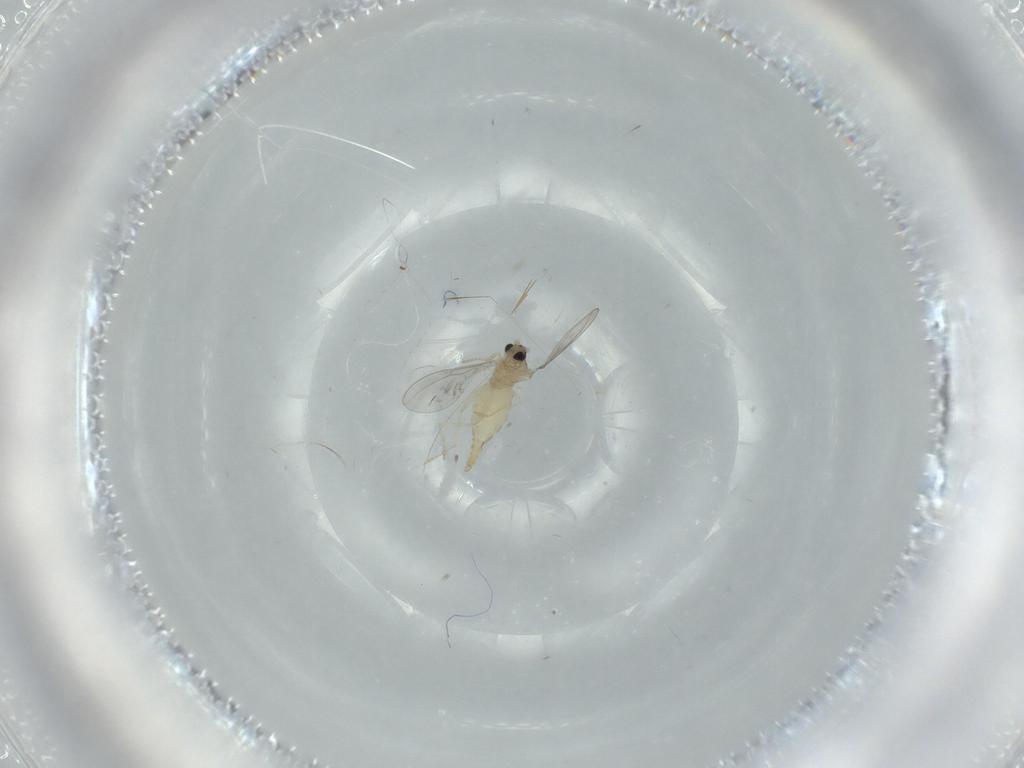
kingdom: Animalia
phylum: Arthropoda
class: Insecta
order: Diptera
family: Cecidomyiidae
